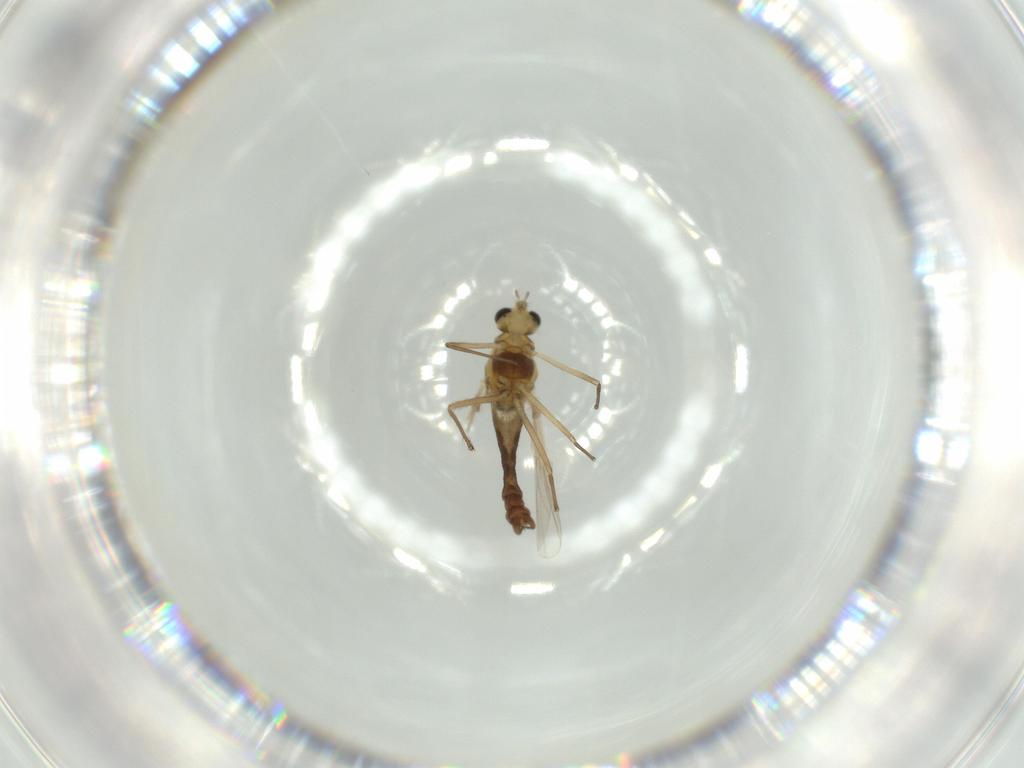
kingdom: Animalia
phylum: Arthropoda
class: Insecta
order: Diptera
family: Chironomidae
